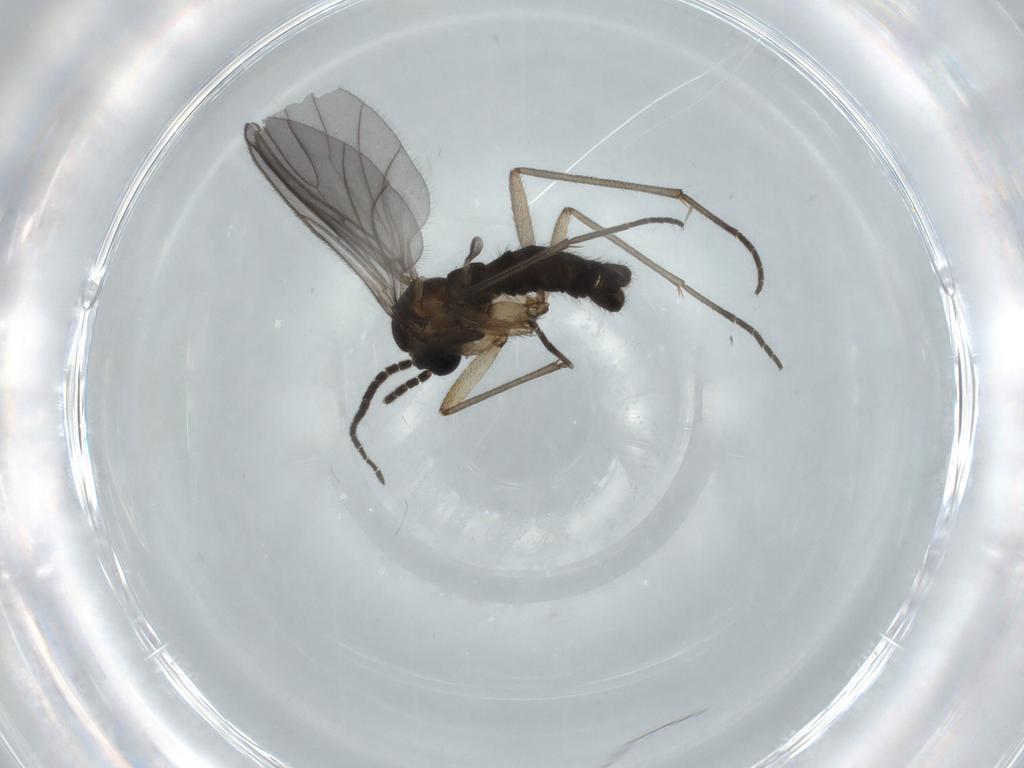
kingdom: Animalia
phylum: Arthropoda
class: Insecta
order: Diptera
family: Sciaridae
